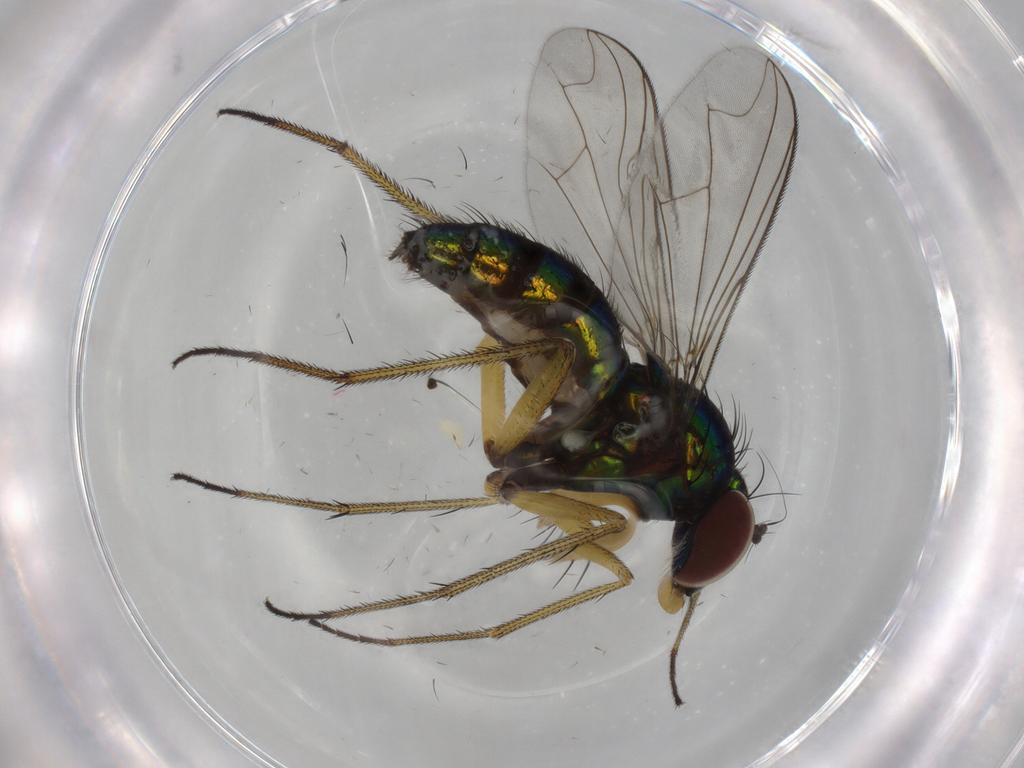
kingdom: Animalia
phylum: Arthropoda
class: Insecta
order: Diptera
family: Dolichopodidae
